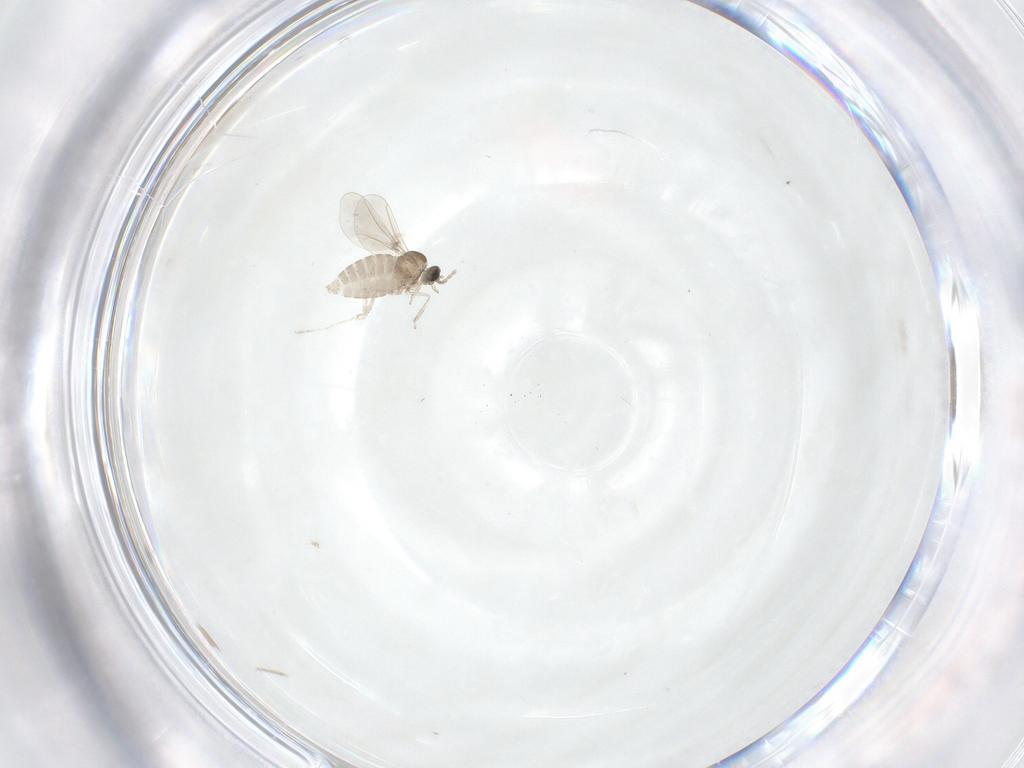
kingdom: Animalia
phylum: Arthropoda
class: Insecta
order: Diptera
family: Cecidomyiidae
